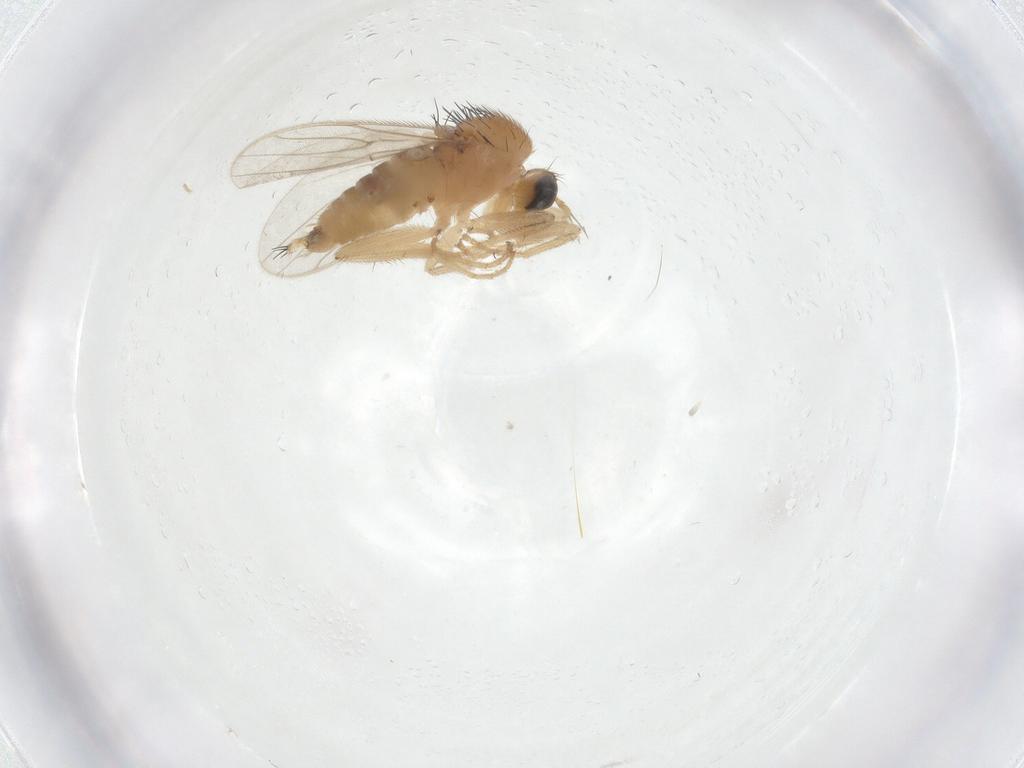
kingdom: Animalia
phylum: Arthropoda
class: Insecta
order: Diptera
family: Hybotidae
